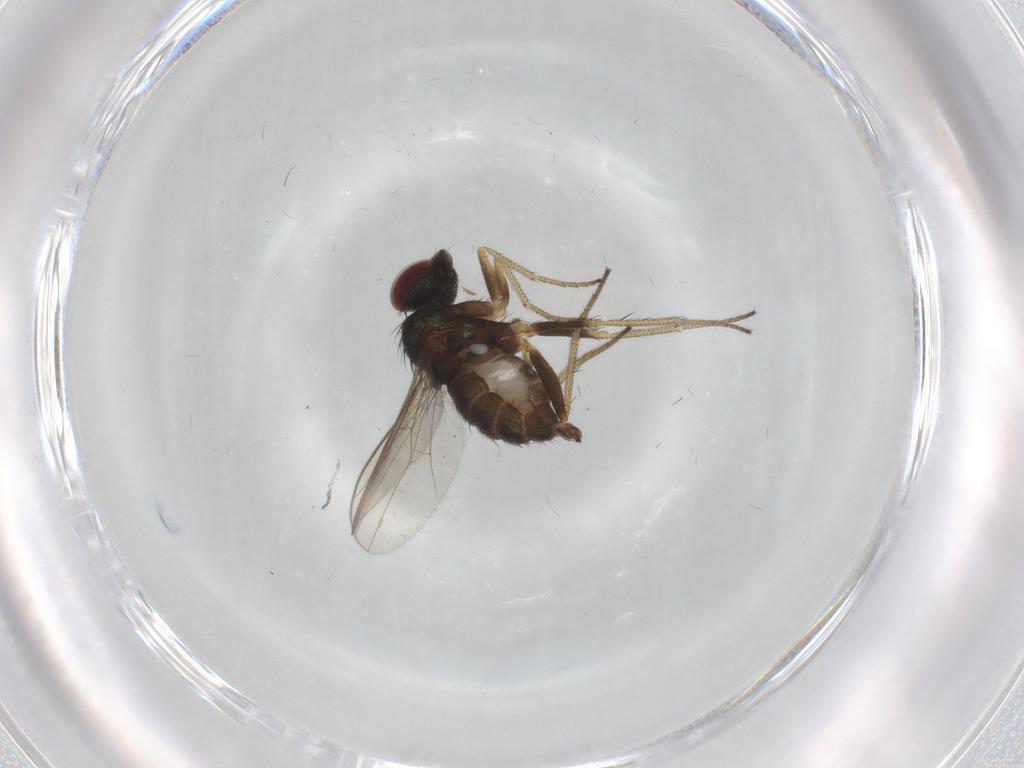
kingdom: Animalia
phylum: Arthropoda
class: Insecta
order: Diptera
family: Dolichopodidae
